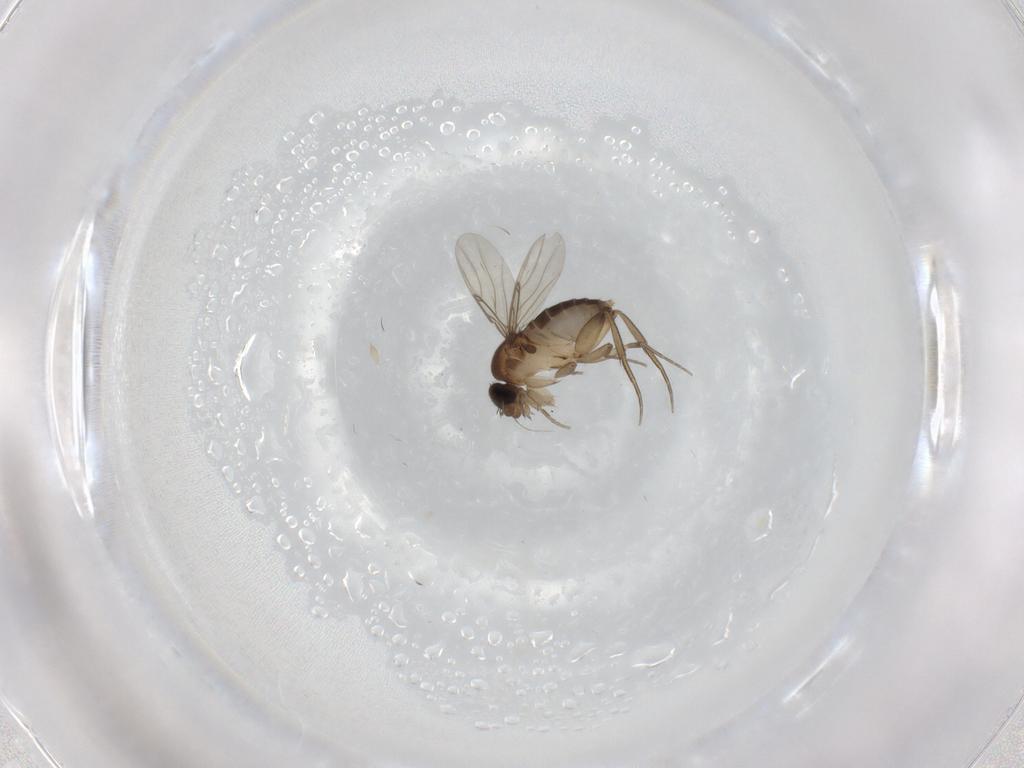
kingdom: Animalia
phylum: Arthropoda
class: Insecta
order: Diptera
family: Phoridae
